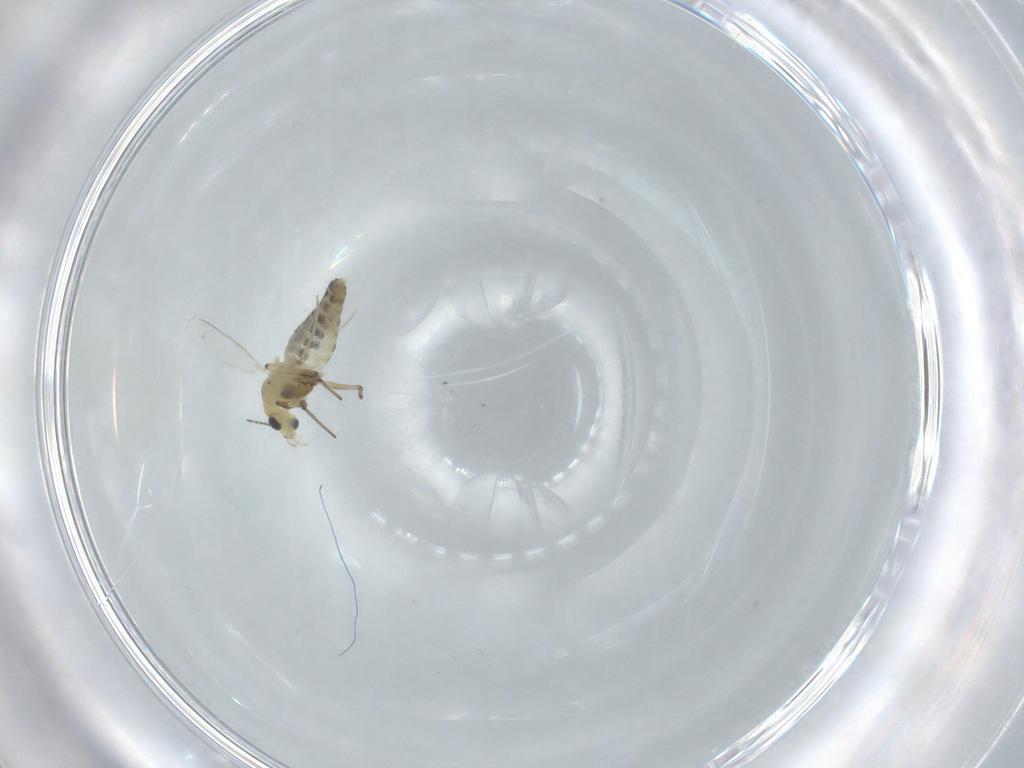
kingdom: Animalia
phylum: Arthropoda
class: Insecta
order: Diptera
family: Chironomidae
